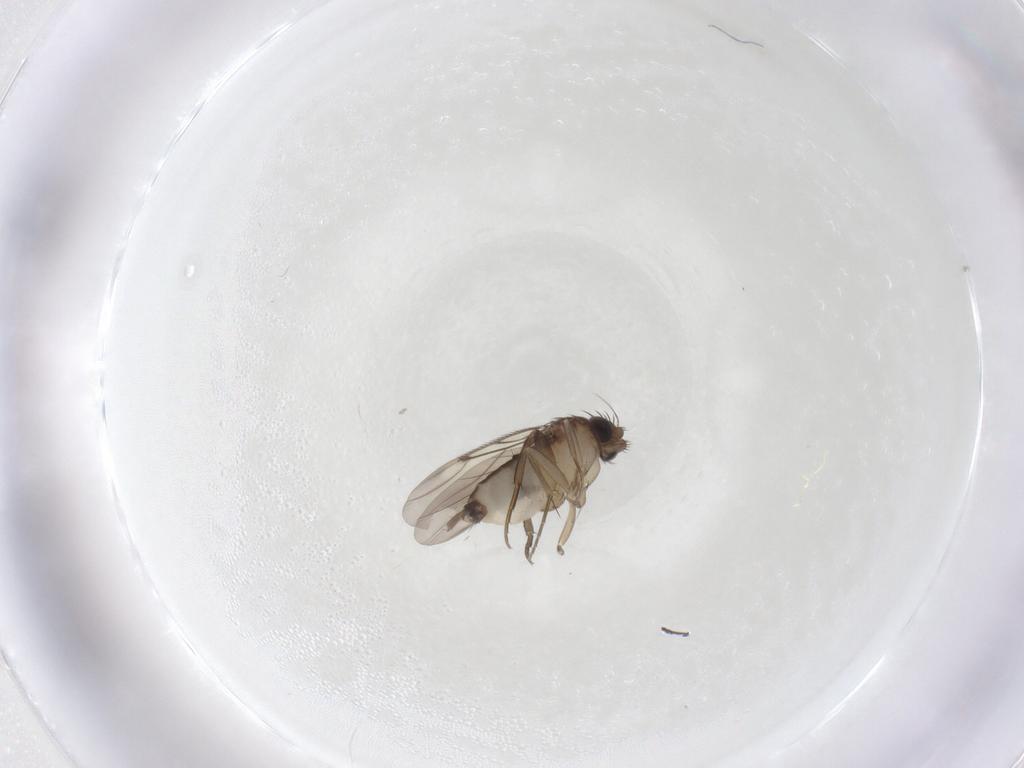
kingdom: Animalia
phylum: Arthropoda
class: Insecta
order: Diptera
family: Phoridae
